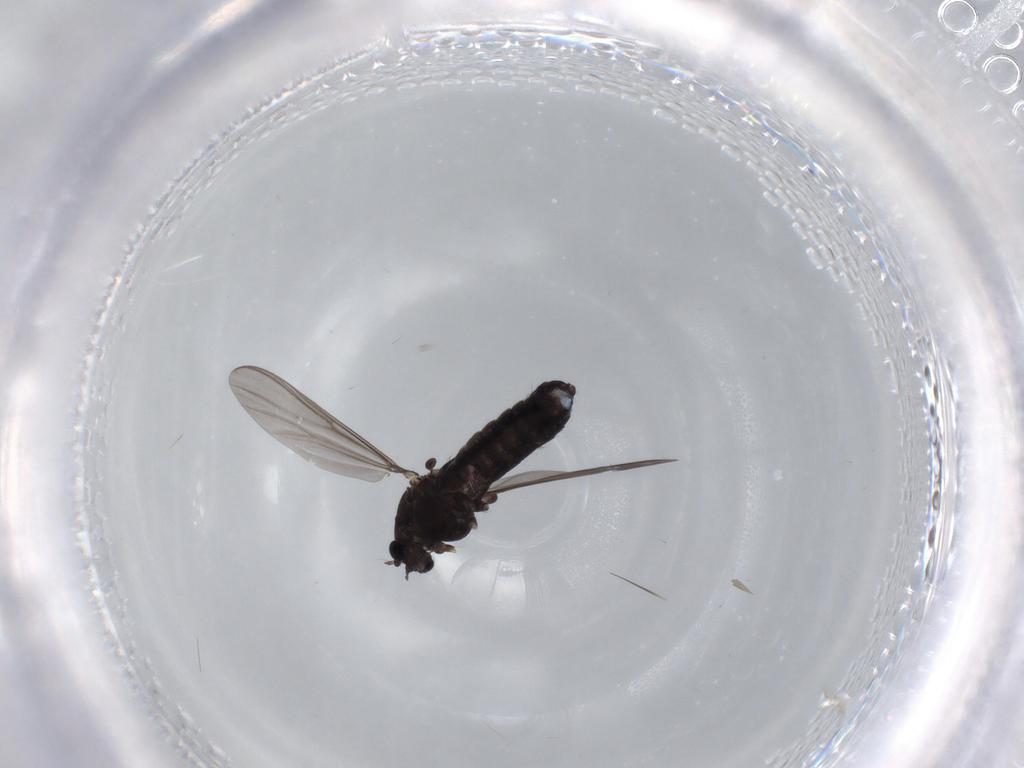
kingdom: Animalia
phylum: Arthropoda
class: Insecta
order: Diptera
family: Chironomidae
